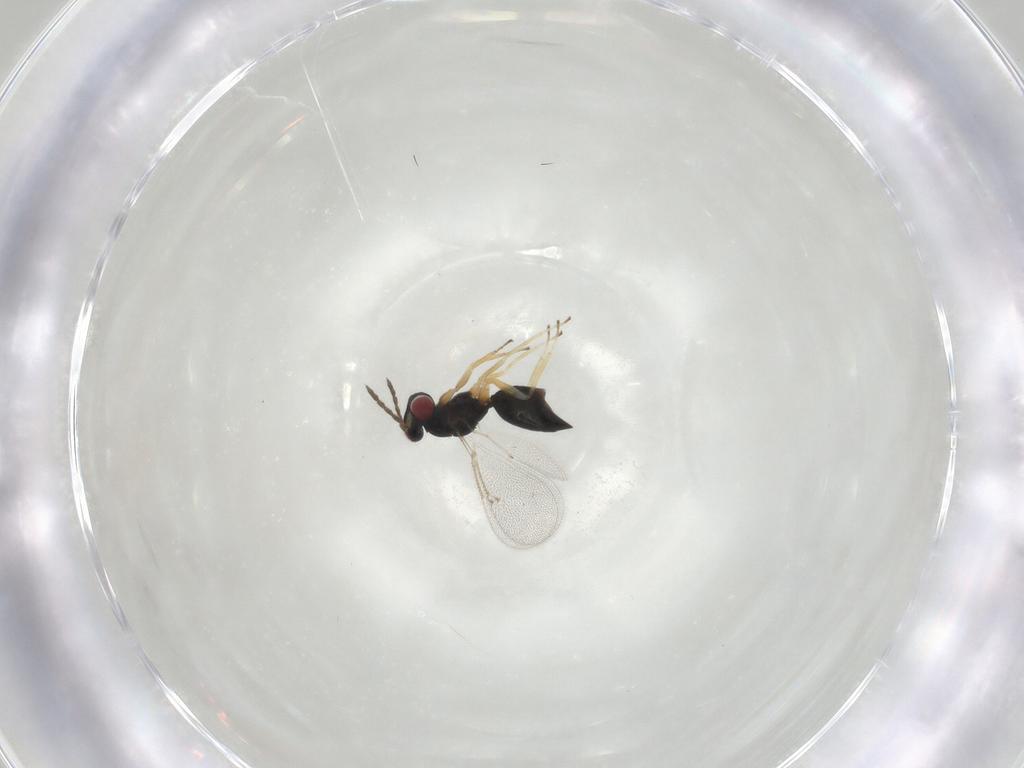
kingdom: Animalia
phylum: Arthropoda
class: Insecta
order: Hymenoptera
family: Eulophidae
